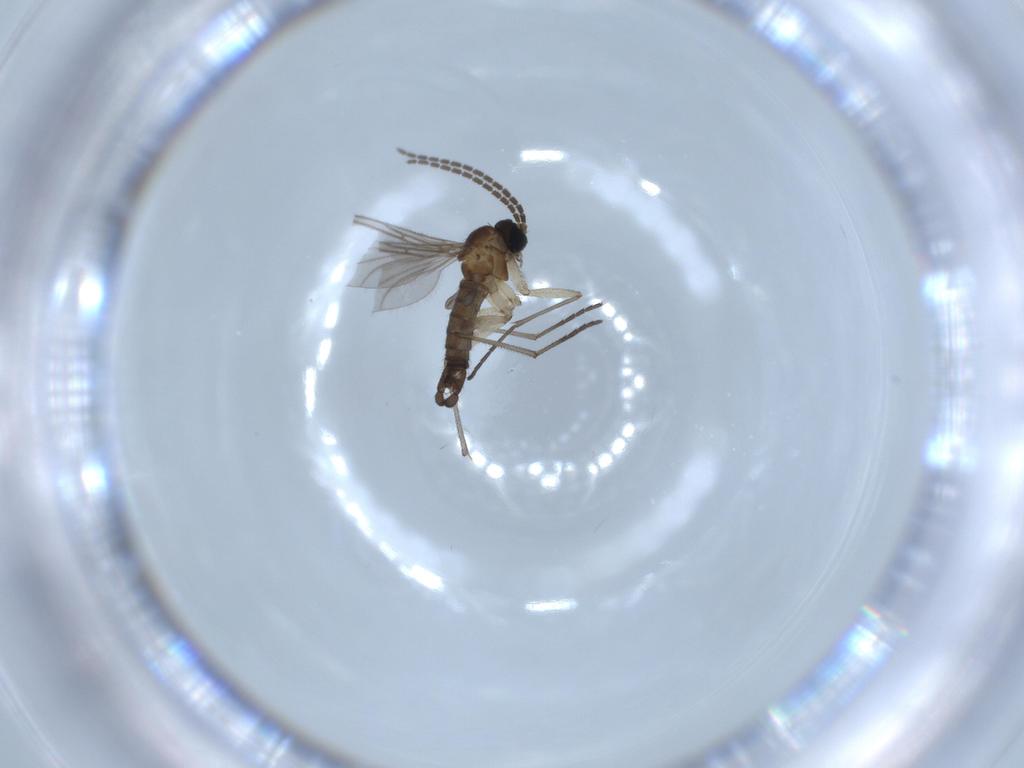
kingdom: Animalia
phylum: Arthropoda
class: Insecta
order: Diptera
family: Sciaridae
